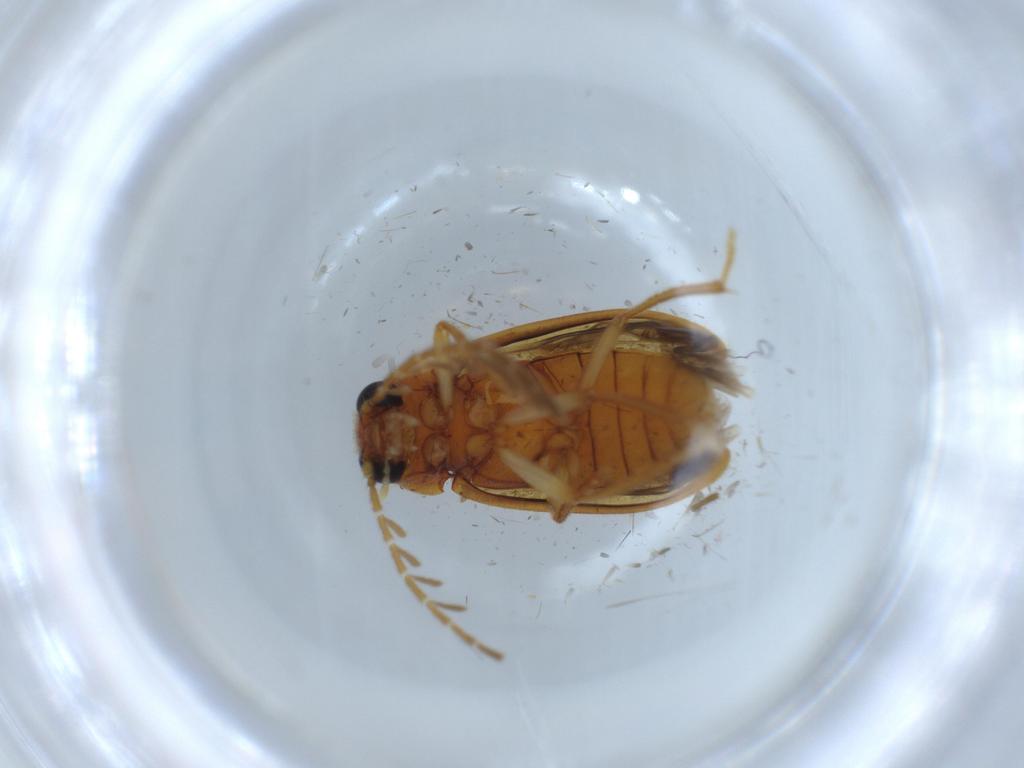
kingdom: Animalia
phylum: Arthropoda
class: Insecta
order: Coleoptera
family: Ptilodactylidae
